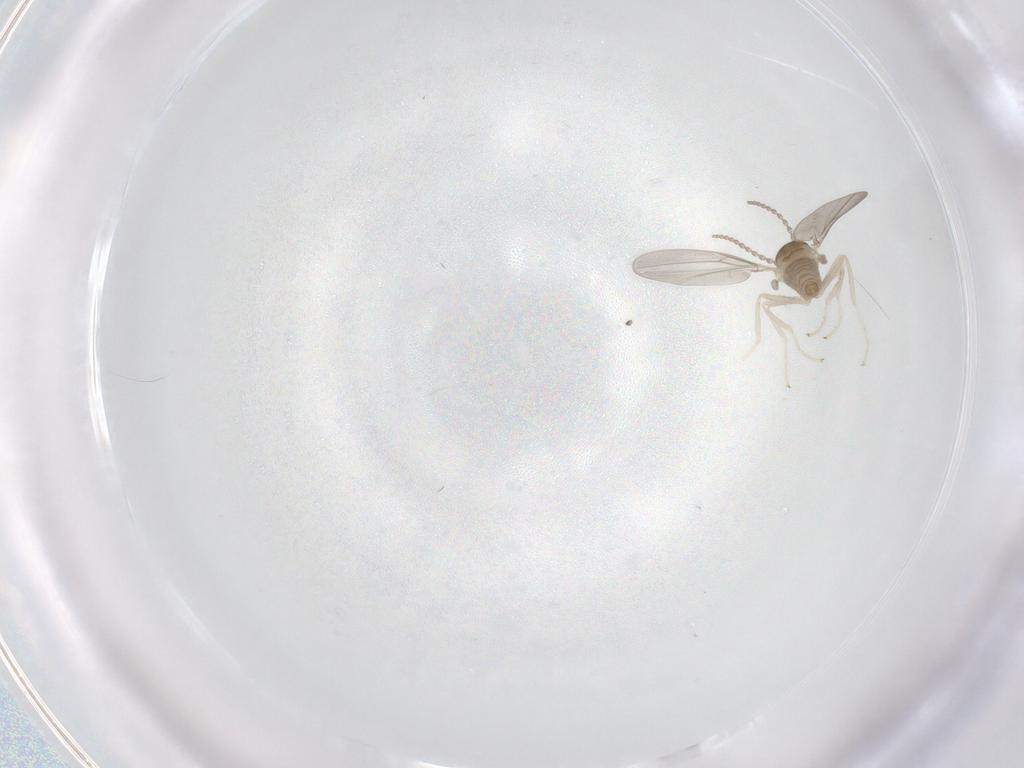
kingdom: Animalia
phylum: Arthropoda
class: Insecta
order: Diptera
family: Cecidomyiidae
